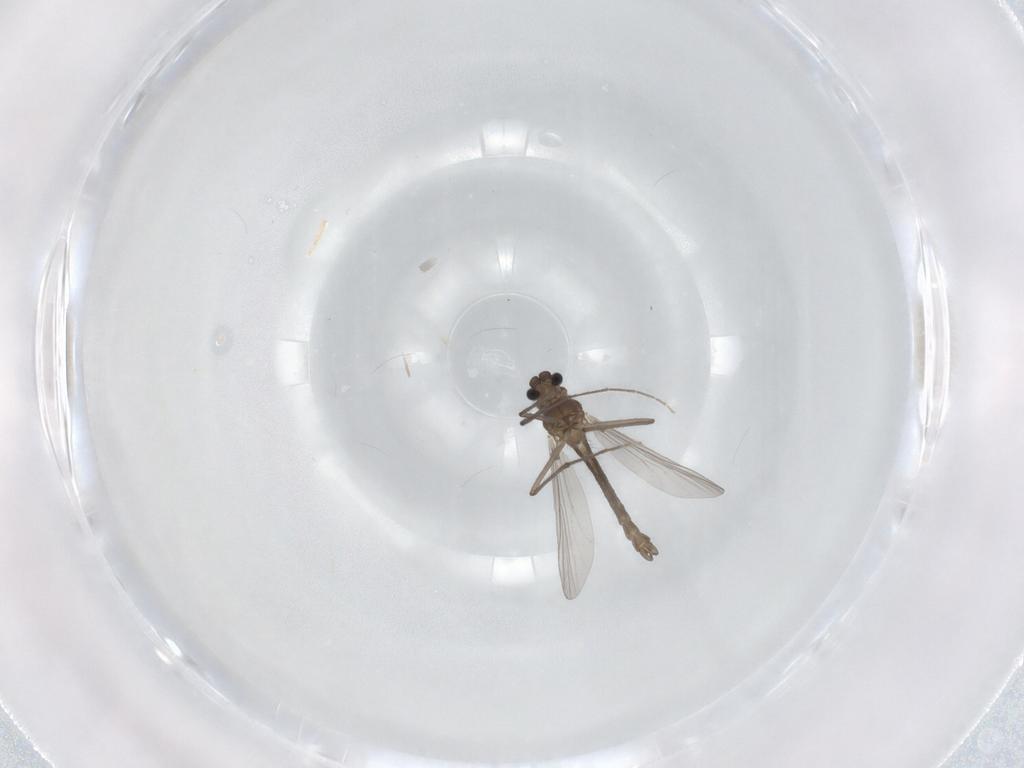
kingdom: Animalia
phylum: Arthropoda
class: Insecta
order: Diptera
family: Chironomidae
